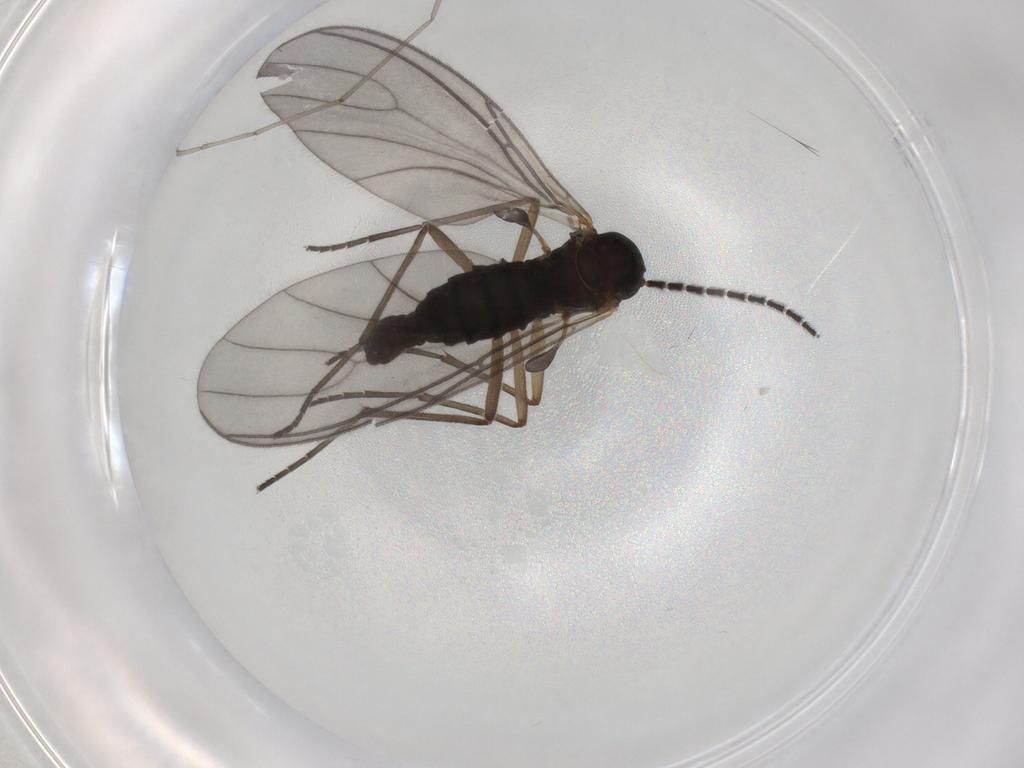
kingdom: Animalia
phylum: Arthropoda
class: Insecta
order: Diptera
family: Sciaridae
